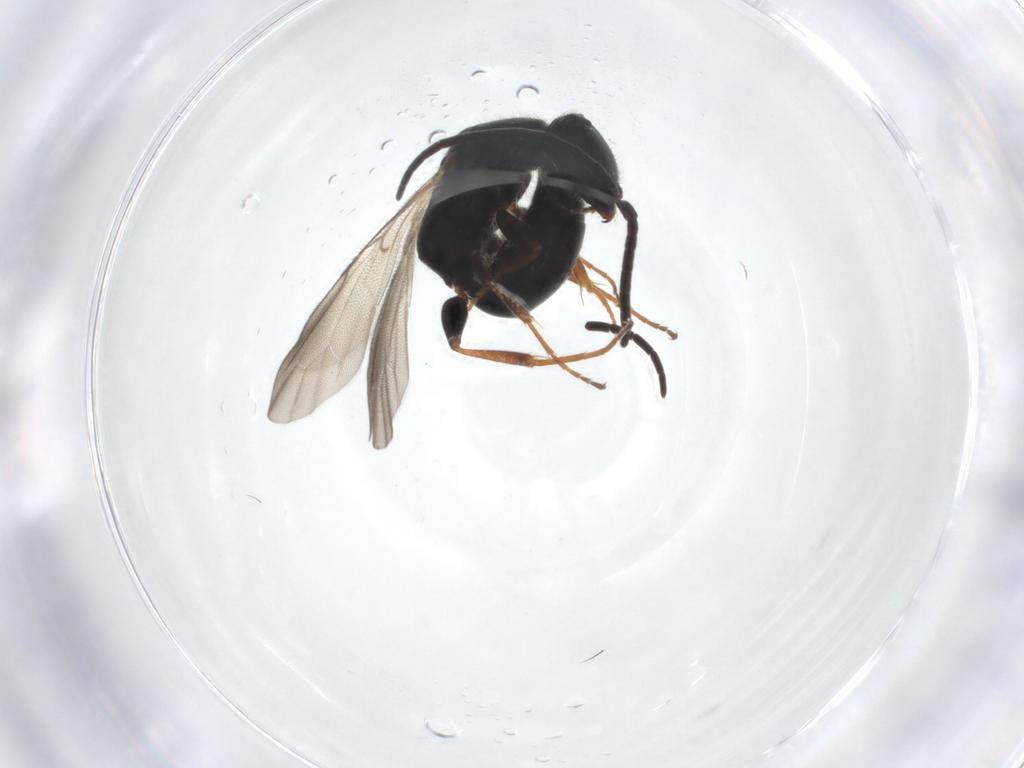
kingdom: Animalia
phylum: Arthropoda
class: Insecta
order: Hymenoptera
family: Bethylidae
